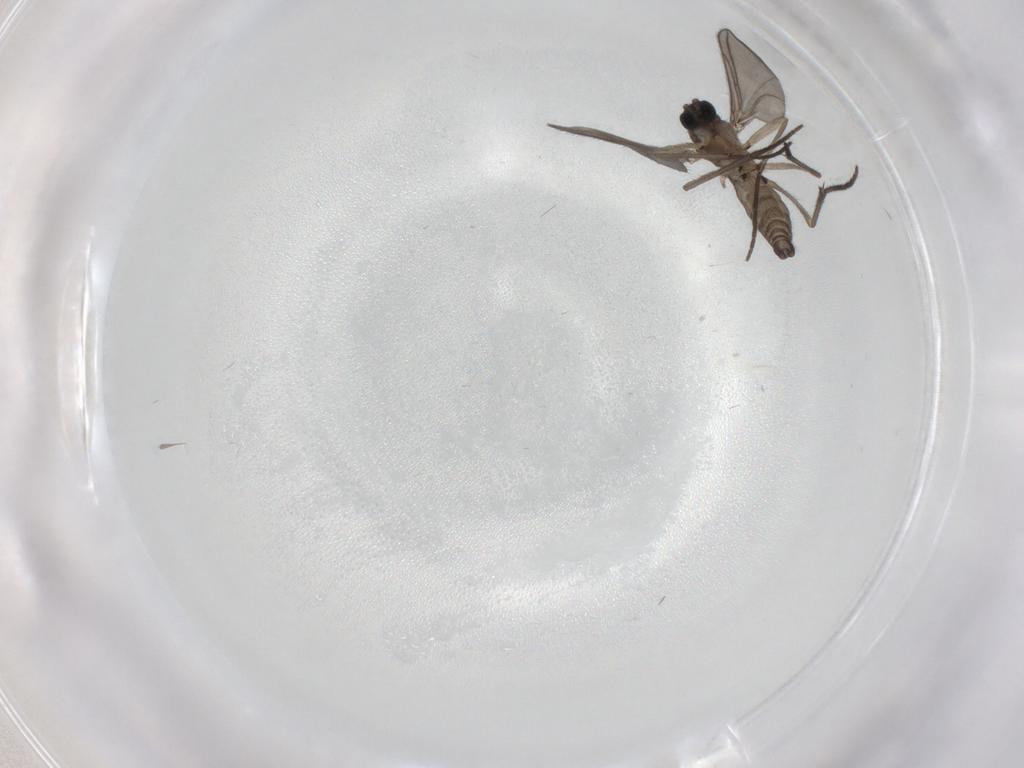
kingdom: Animalia
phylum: Arthropoda
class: Insecta
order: Diptera
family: Sciaridae
